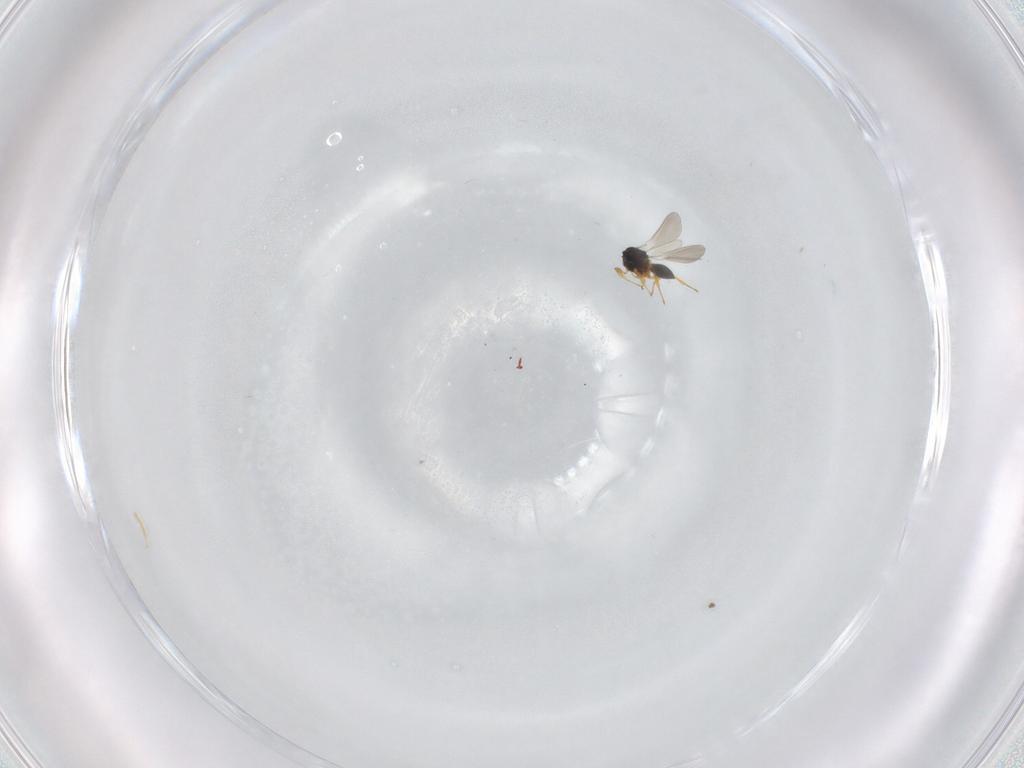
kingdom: Animalia
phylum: Arthropoda
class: Insecta
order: Hymenoptera
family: Platygastridae
